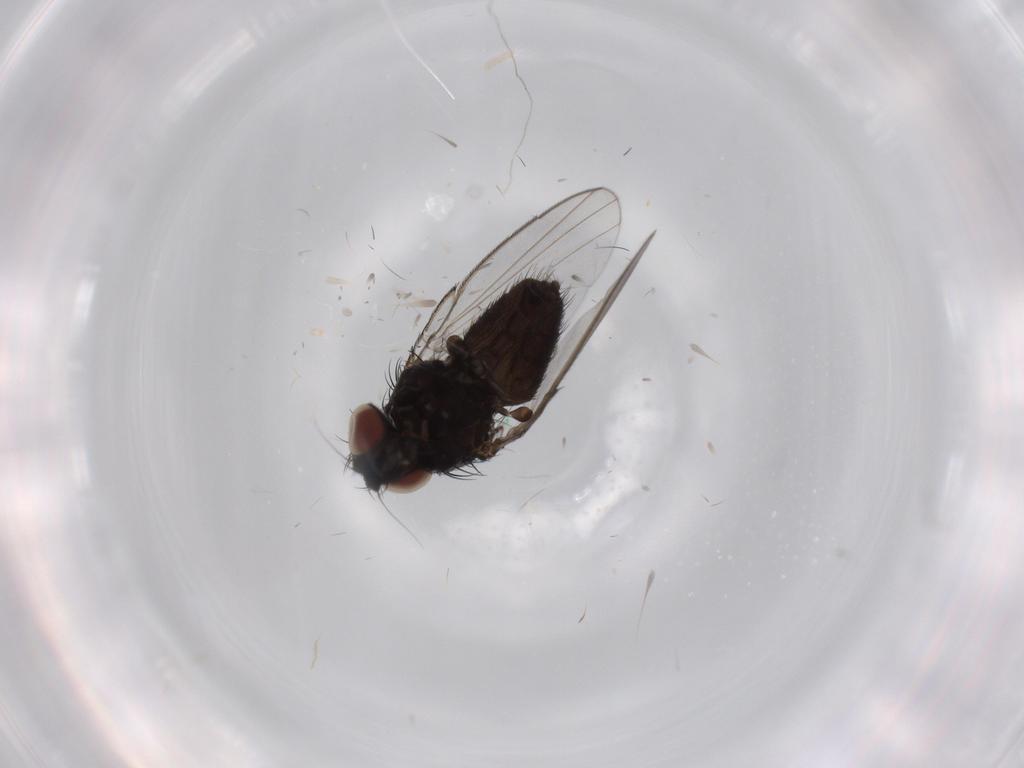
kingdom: Animalia
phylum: Arthropoda
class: Insecta
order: Diptera
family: Milichiidae
